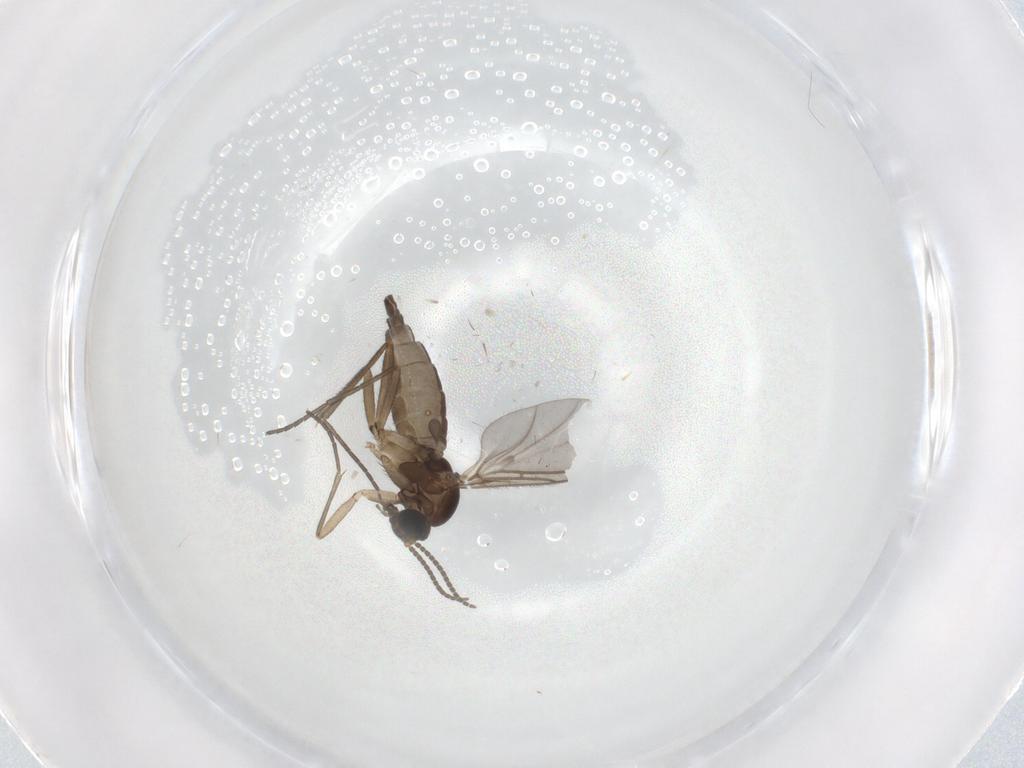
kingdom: Animalia
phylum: Arthropoda
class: Insecta
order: Diptera
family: Sciaridae
